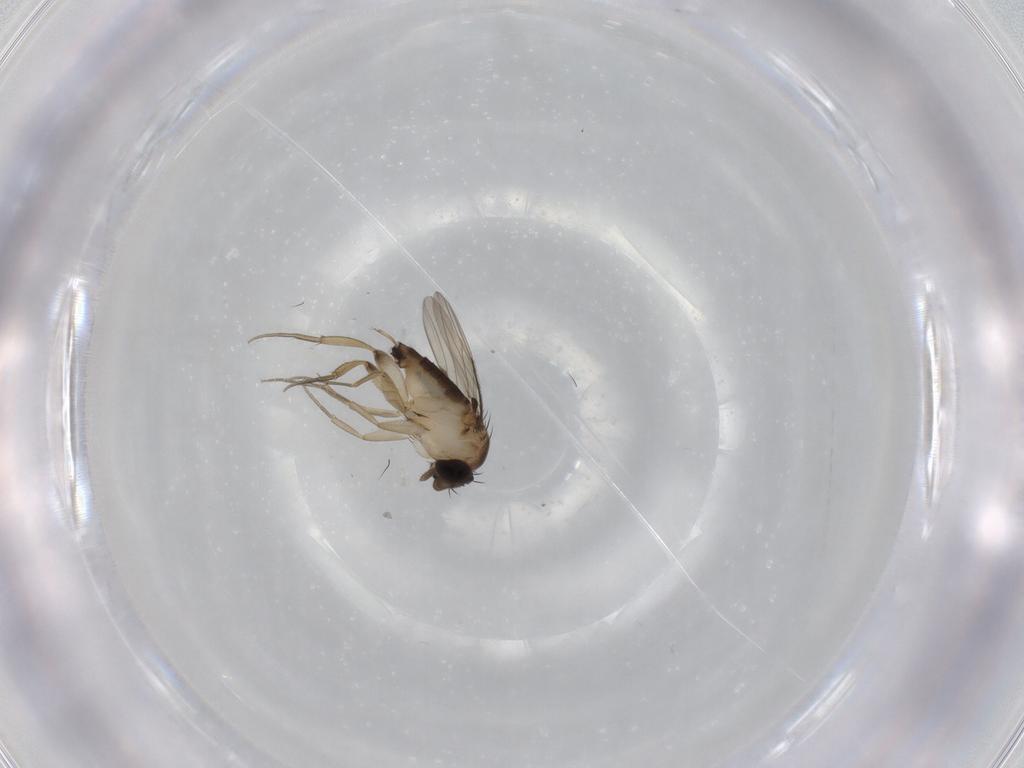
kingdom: Animalia
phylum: Arthropoda
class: Insecta
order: Diptera
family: Phoridae
